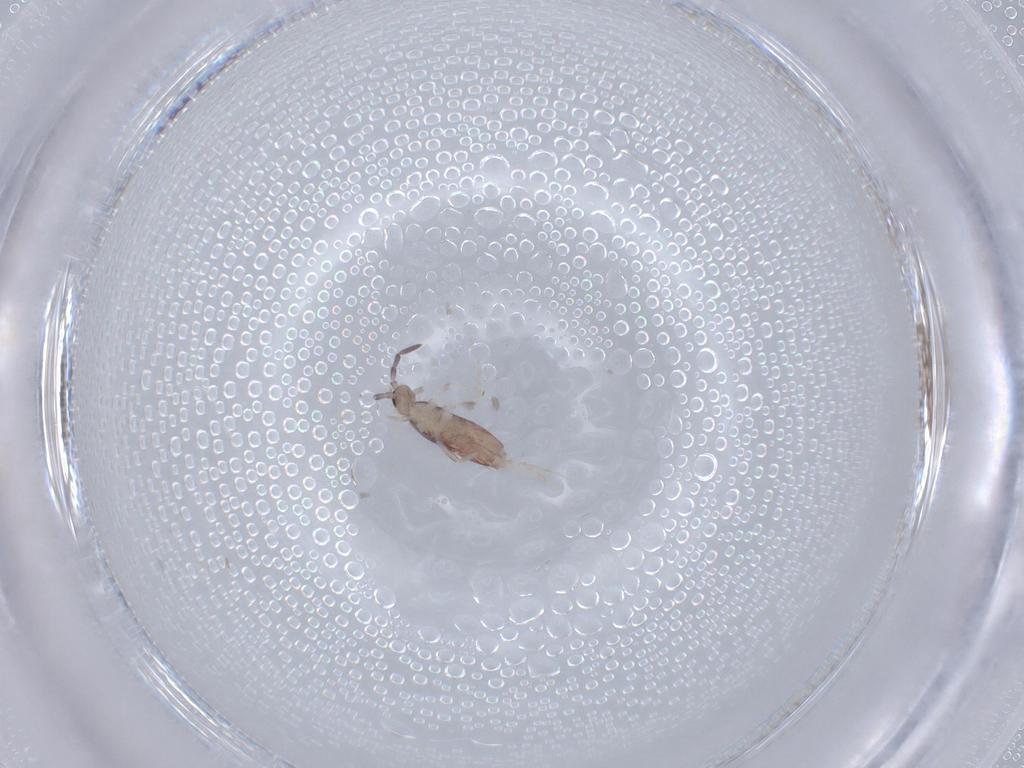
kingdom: Animalia
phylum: Arthropoda
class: Collembola
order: Poduromorpha
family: Hypogastruridae
